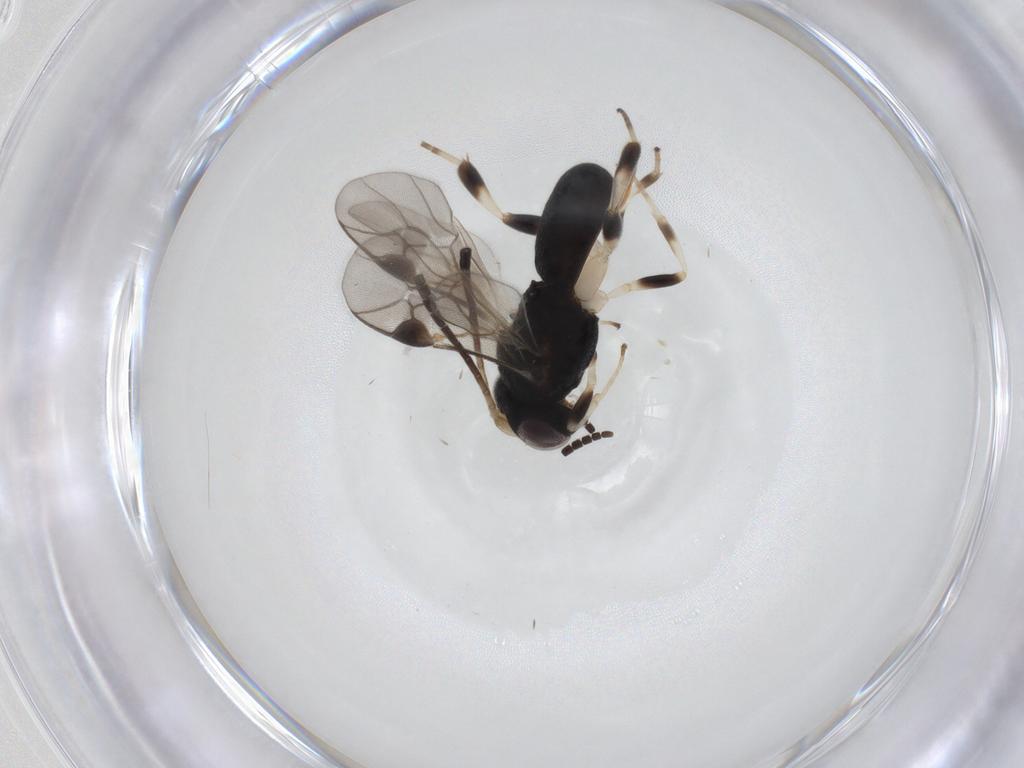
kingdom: Animalia
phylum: Arthropoda
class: Insecta
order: Hymenoptera
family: Braconidae
